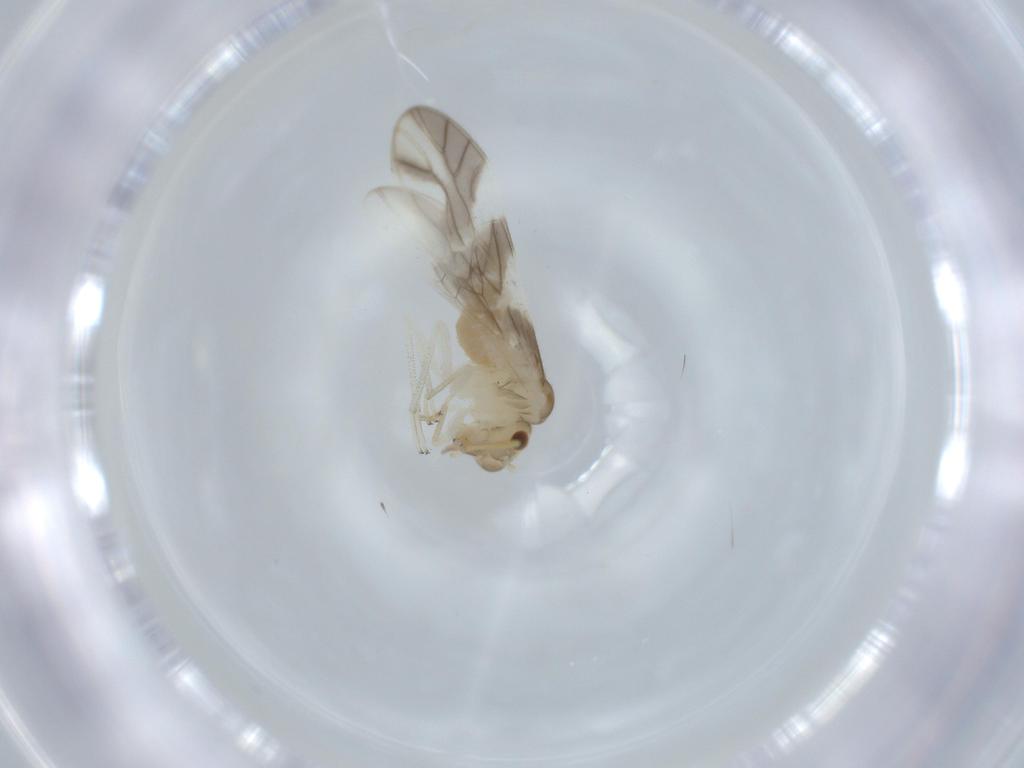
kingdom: Animalia
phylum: Arthropoda
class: Insecta
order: Psocodea
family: Caeciliusidae
